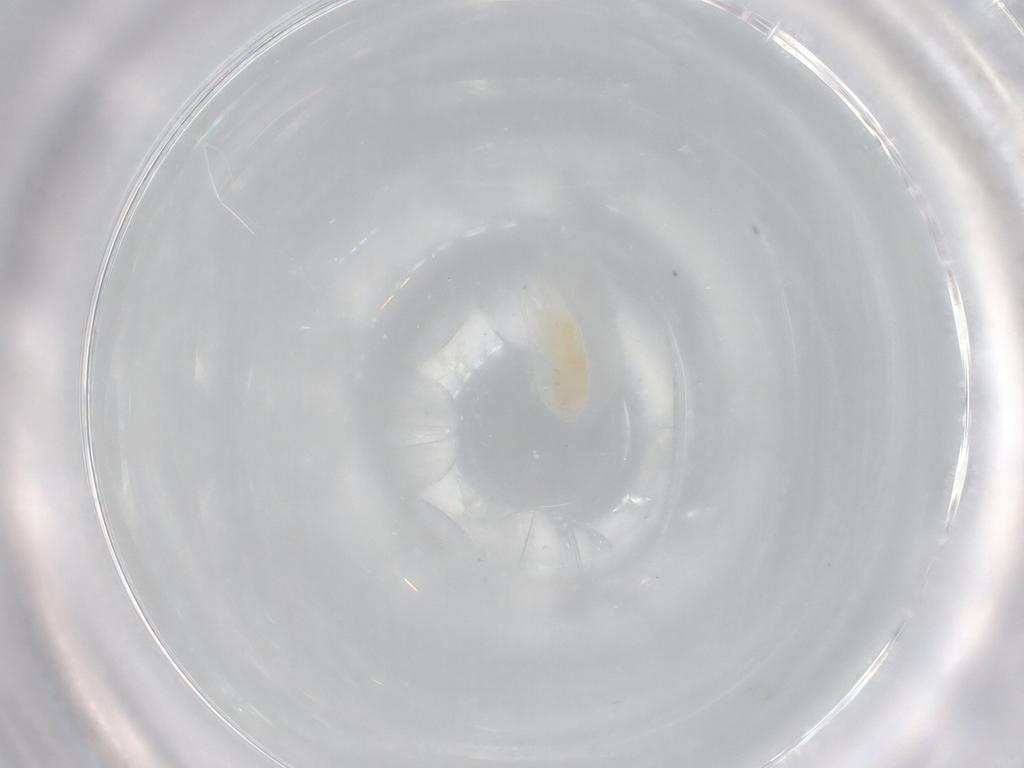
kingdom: Animalia
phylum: Arthropoda
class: Copepoda
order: Calanoida
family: Diaptomidae
